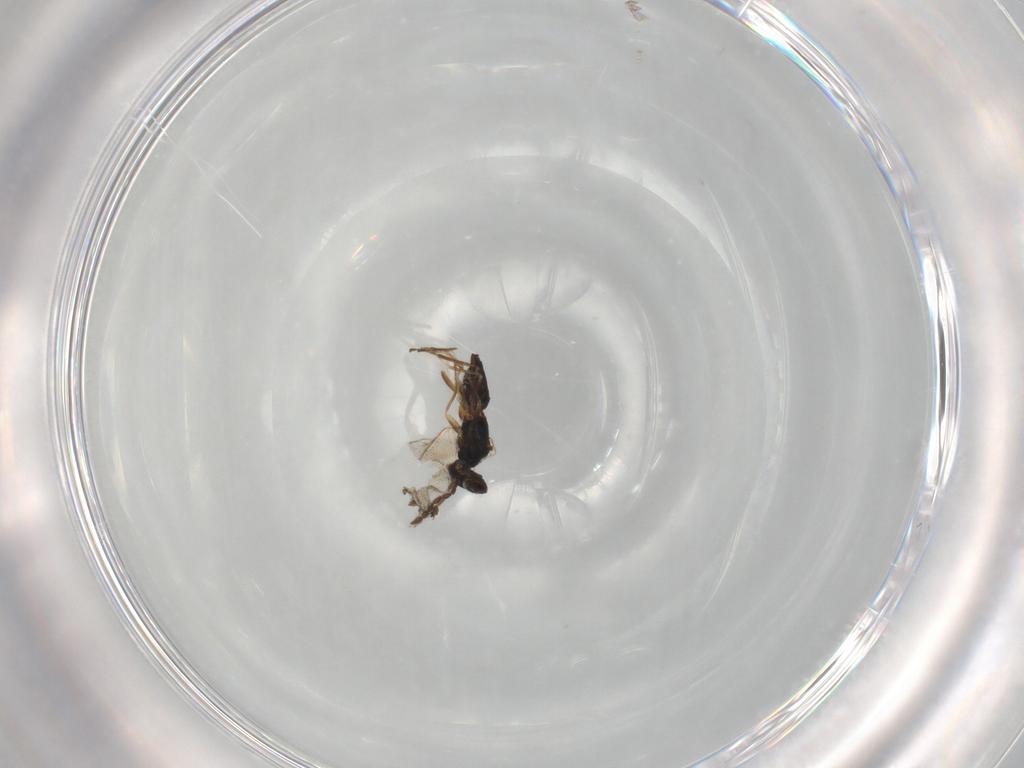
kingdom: Animalia
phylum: Arthropoda
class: Insecta
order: Hymenoptera
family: Eulophidae
